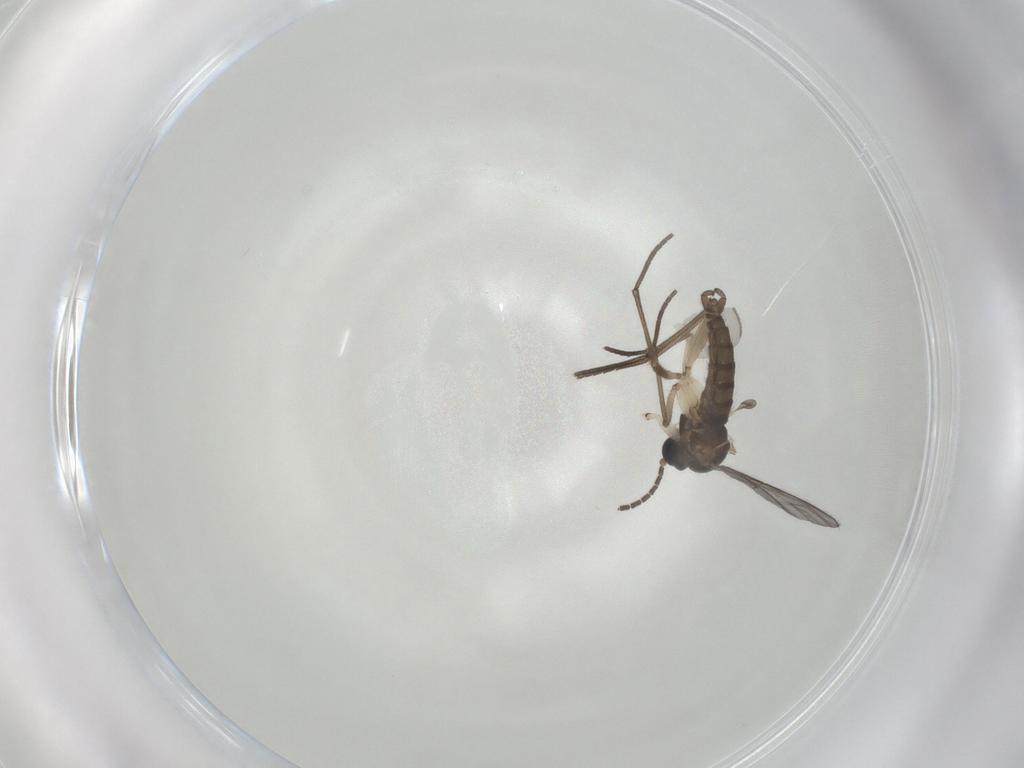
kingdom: Animalia
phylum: Arthropoda
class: Insecta
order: Diptera
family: Sciaridae
